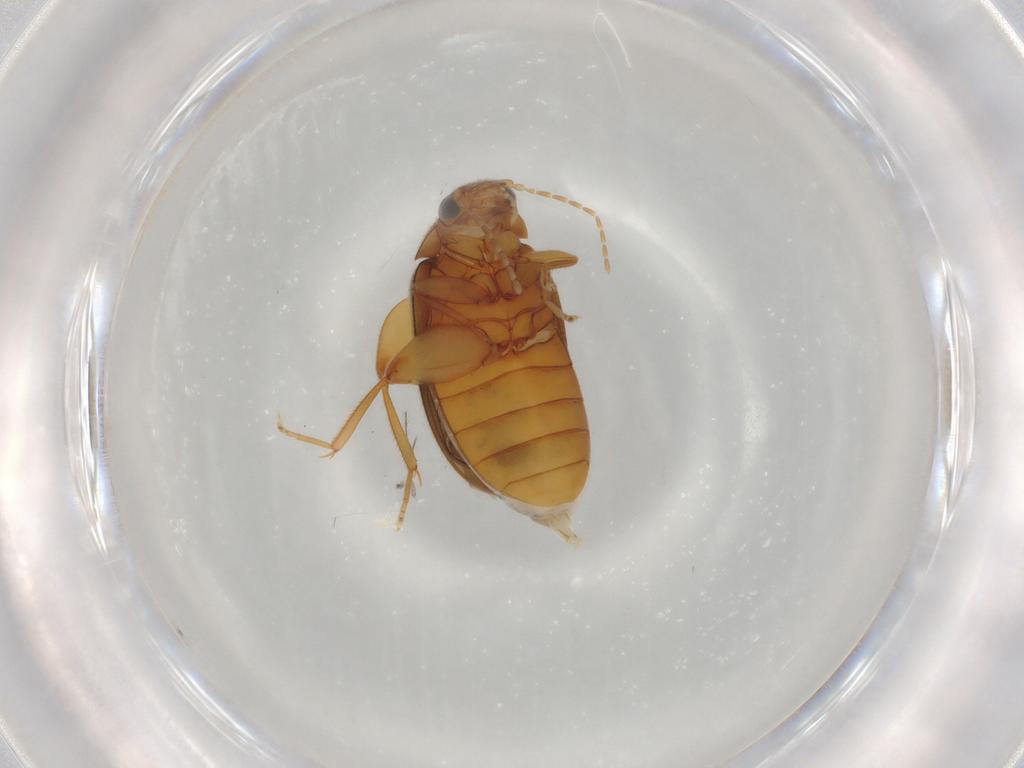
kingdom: Animalia
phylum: Arthropoda
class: Insecta
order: Coleoptera
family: Scirtidae
